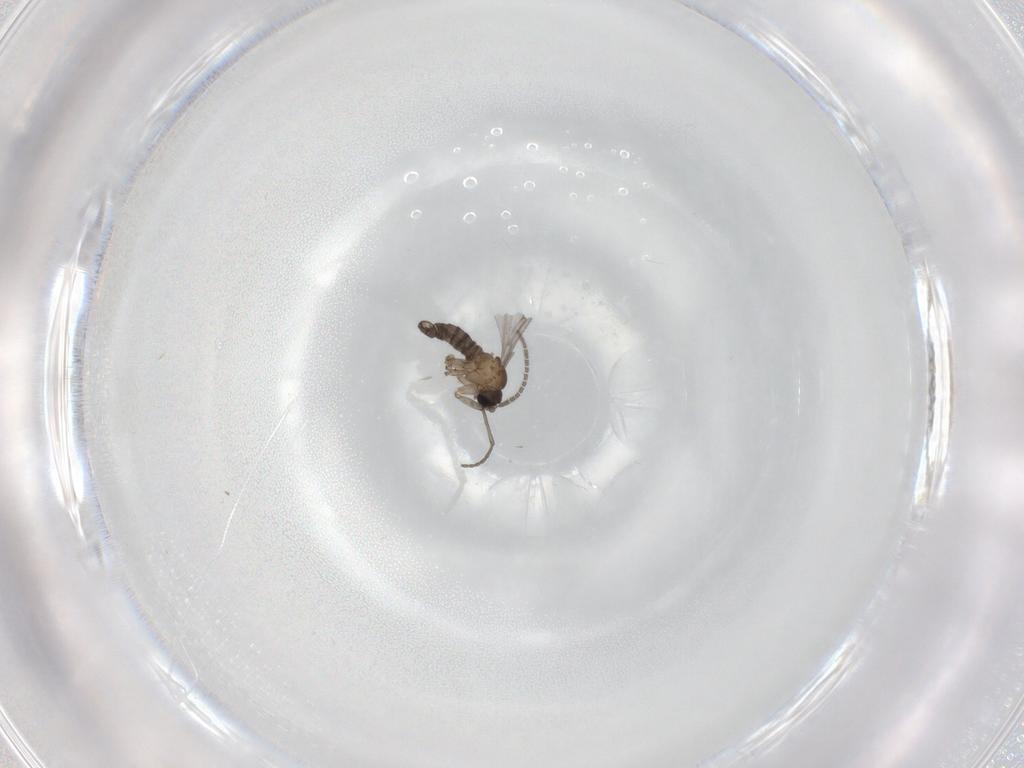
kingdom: Animalia
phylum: Arthropoda
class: Insecta
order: Diptera
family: Sciaridae
